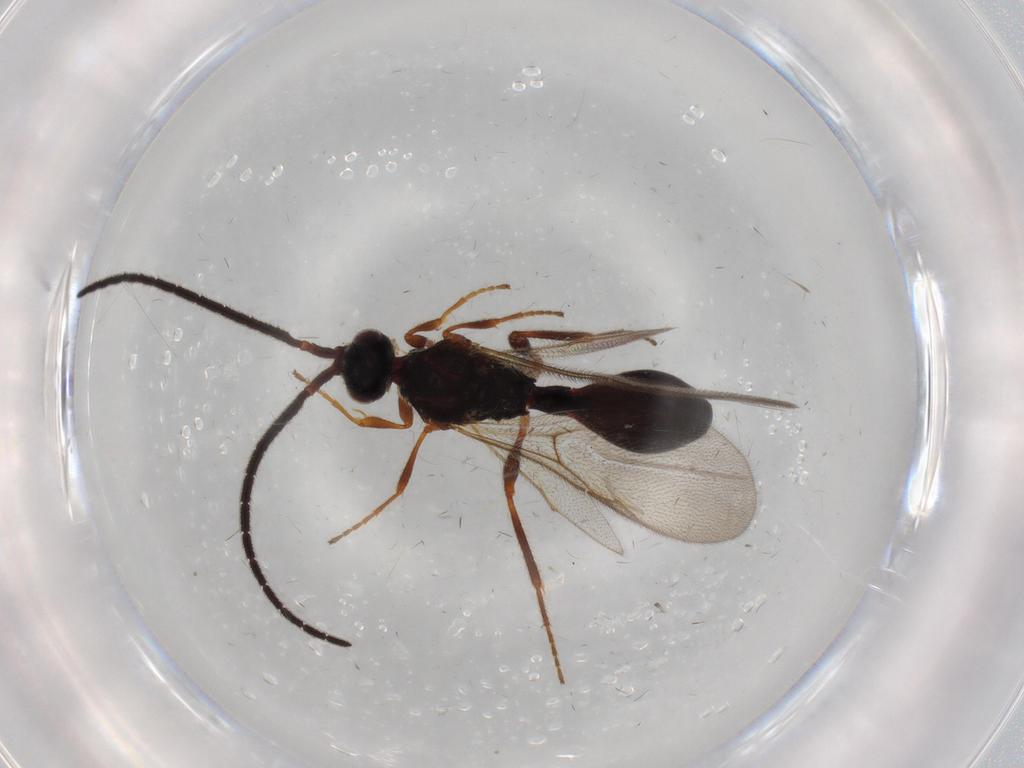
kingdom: Animalia
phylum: Arthropoda
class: Insecta
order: Hymenoptera
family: Diapriidae
